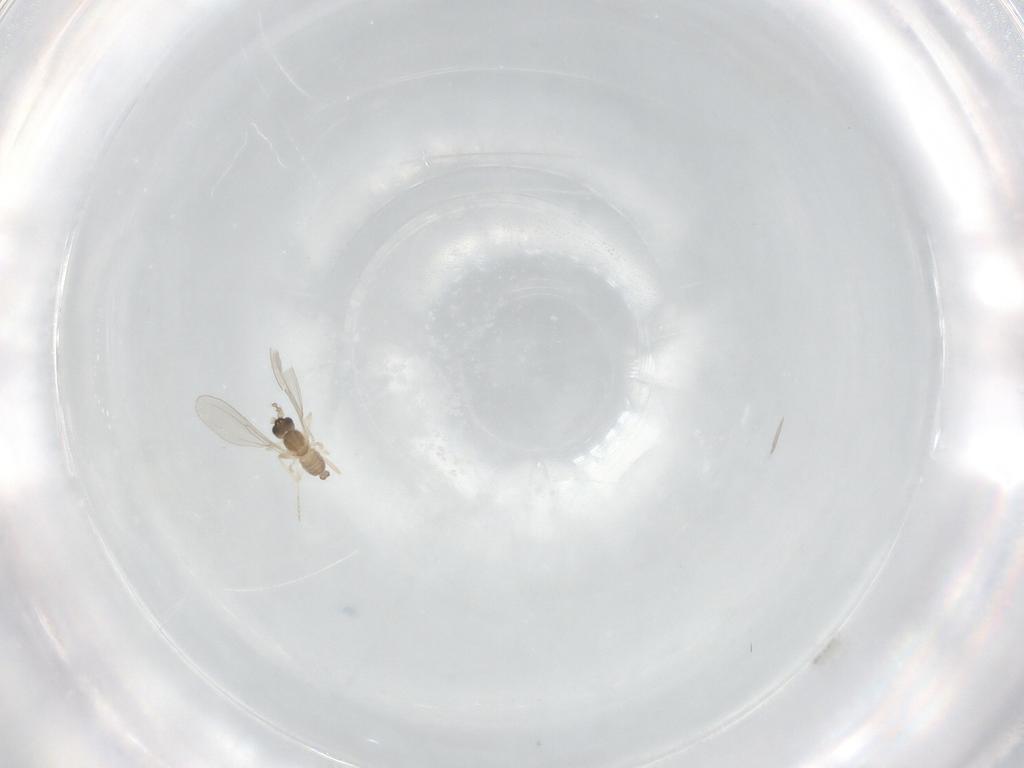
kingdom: Animalia
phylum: Arthropoda
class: Insecta
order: Diptera
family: Cecidomyiidae
